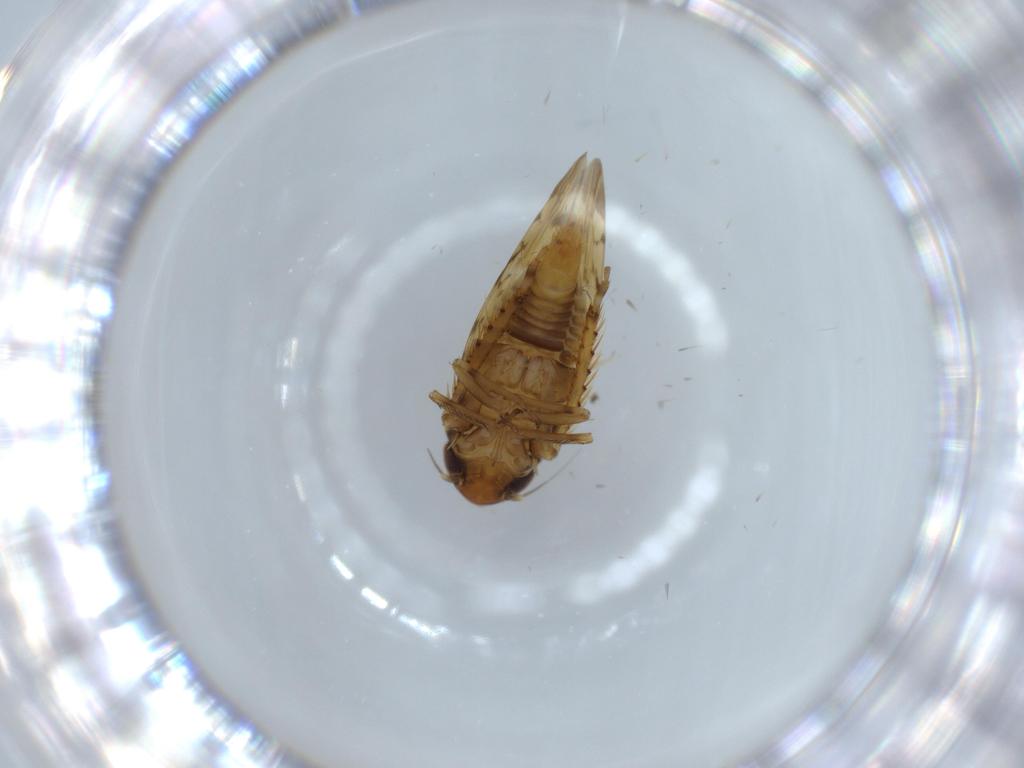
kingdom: Animalia
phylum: Arthropoda
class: Insecta
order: Hemiptera
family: Cicadellidae
